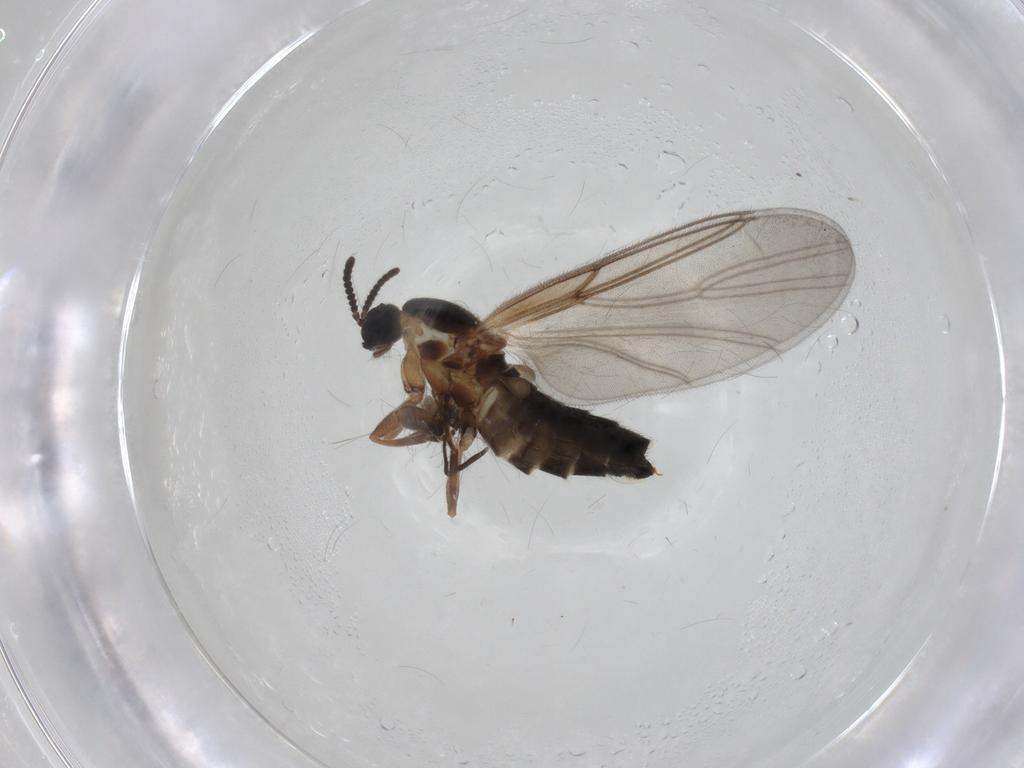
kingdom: Animalia
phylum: Arthropoda
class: Insecta
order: Diptera
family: Scatopsidae
